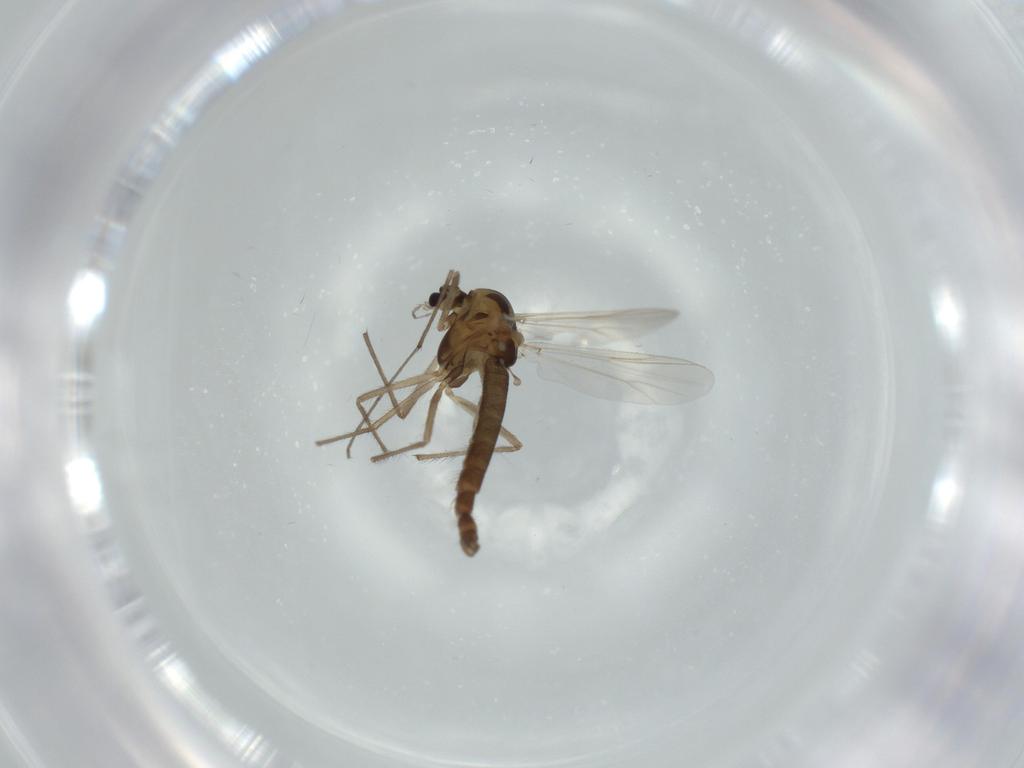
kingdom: Animalia
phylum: Arthropoda
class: Insecta
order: Diptera
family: Chironomidae
